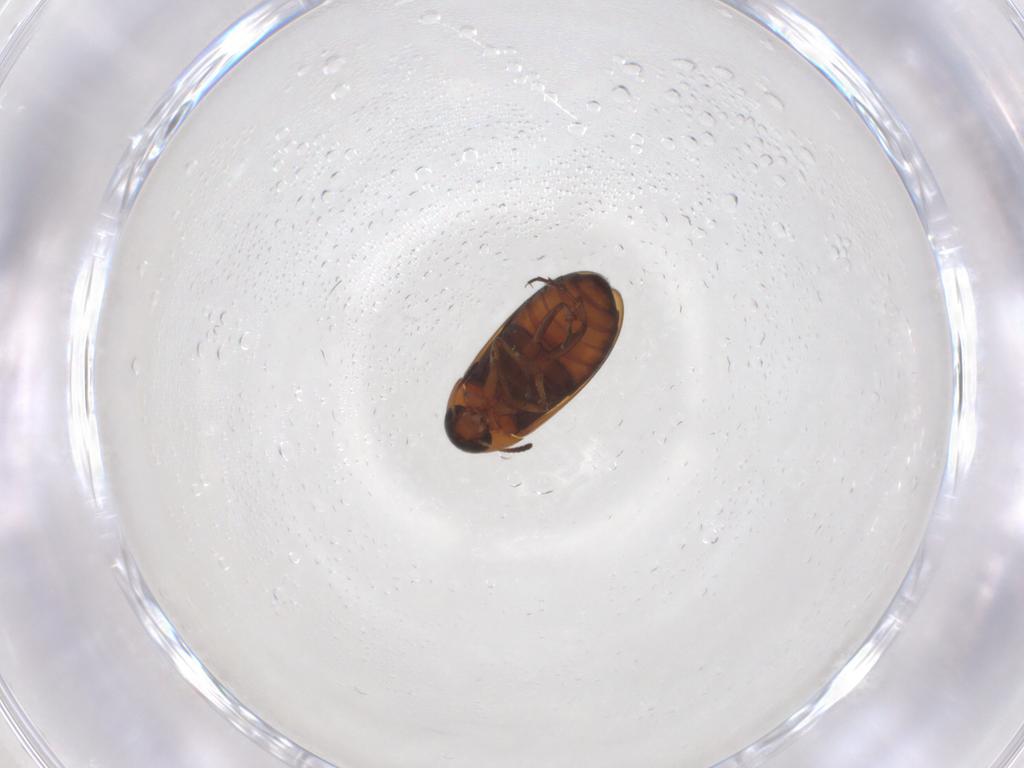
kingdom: Animalia
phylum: Arthropoda
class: Insecta
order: Coleoptera
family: Scraptiidae
